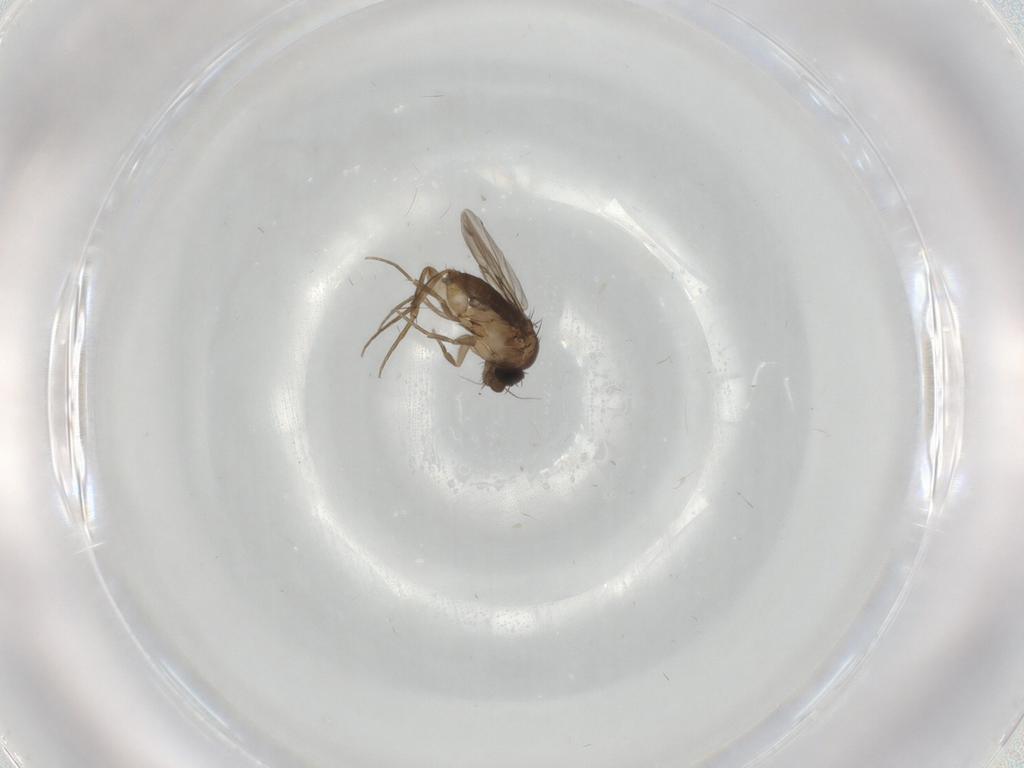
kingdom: Animalia
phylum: Arthropoda
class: Insecta
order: Diptera
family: Phoridae
